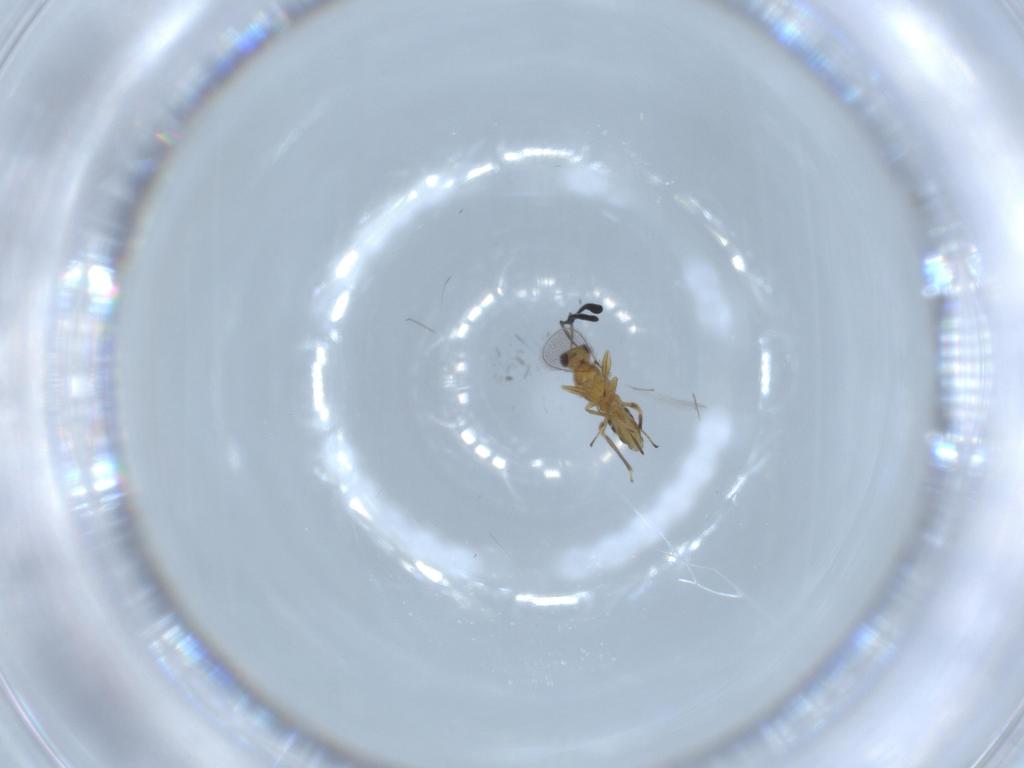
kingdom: Animalia
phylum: Arthropoda
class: Insecta
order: Hymenoptera
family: Mymaridae
